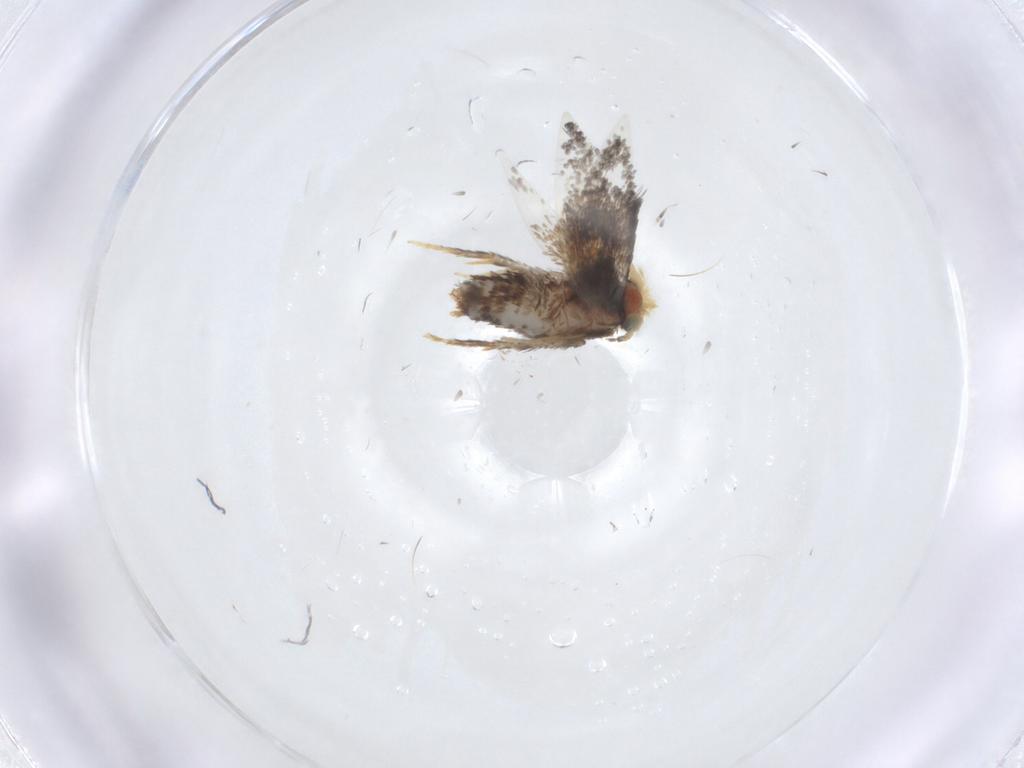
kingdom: Animalia
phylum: Arthropoda
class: Insecta
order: Lepidoptera
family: Nepticulidae
